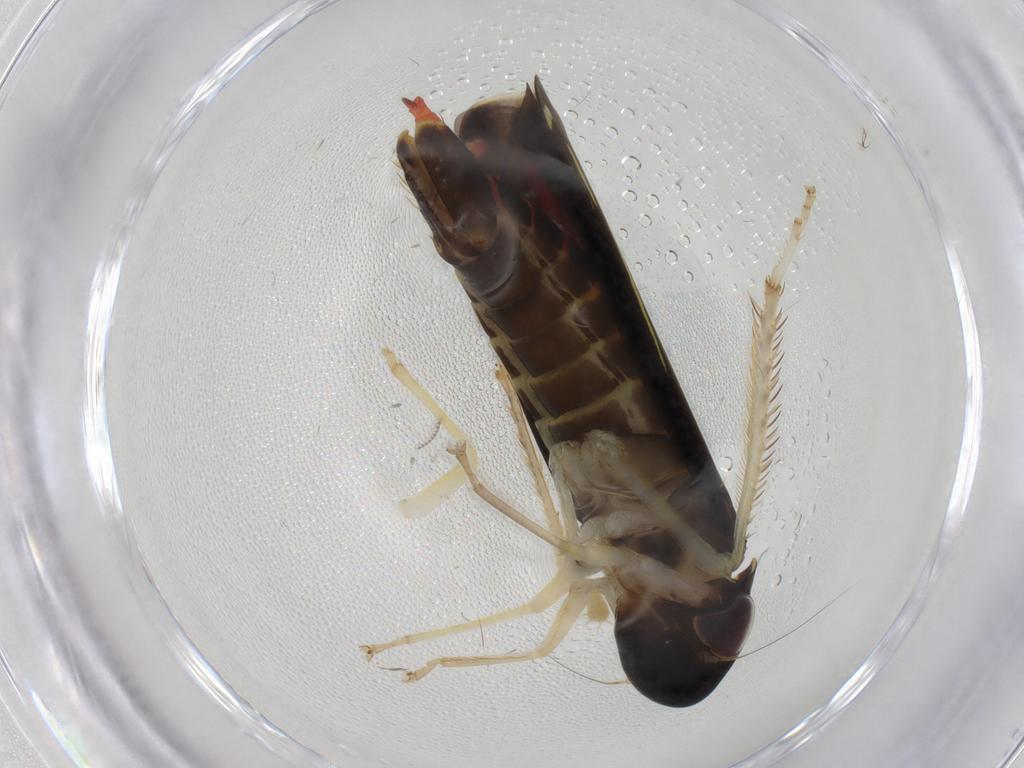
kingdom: Animalia
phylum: Arthropoda
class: Insecta
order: Hemiptera
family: Cicadellidae
